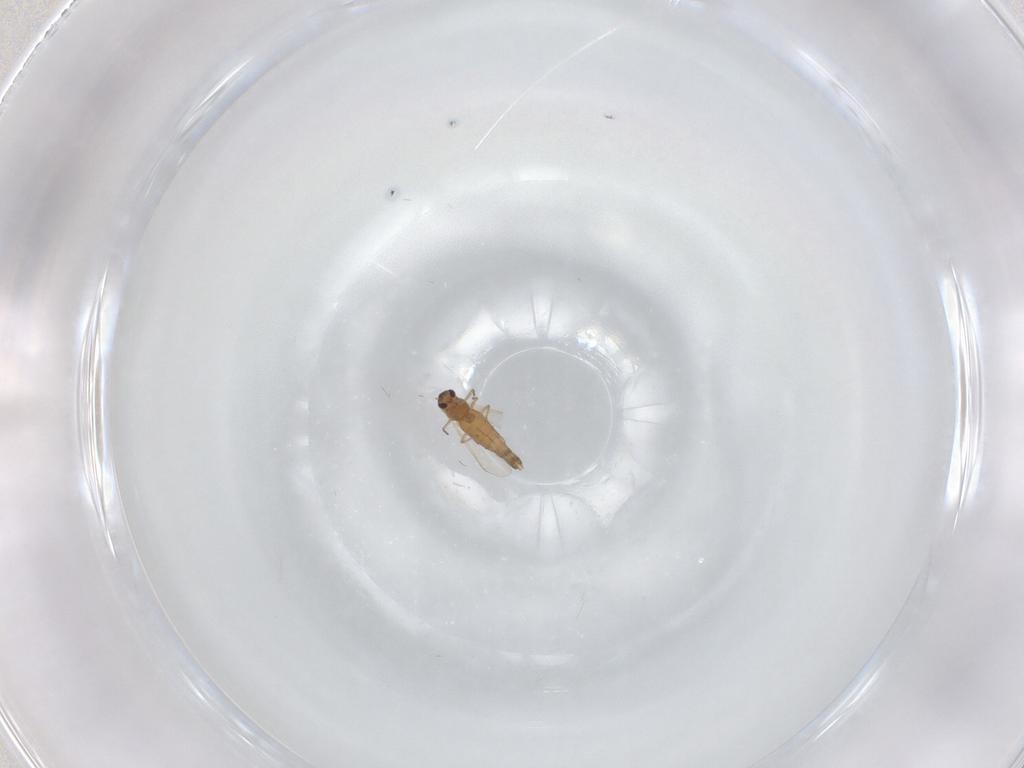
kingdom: Animalia
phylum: Arthropoda
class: Insecta
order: Diptera
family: Chironomidae
